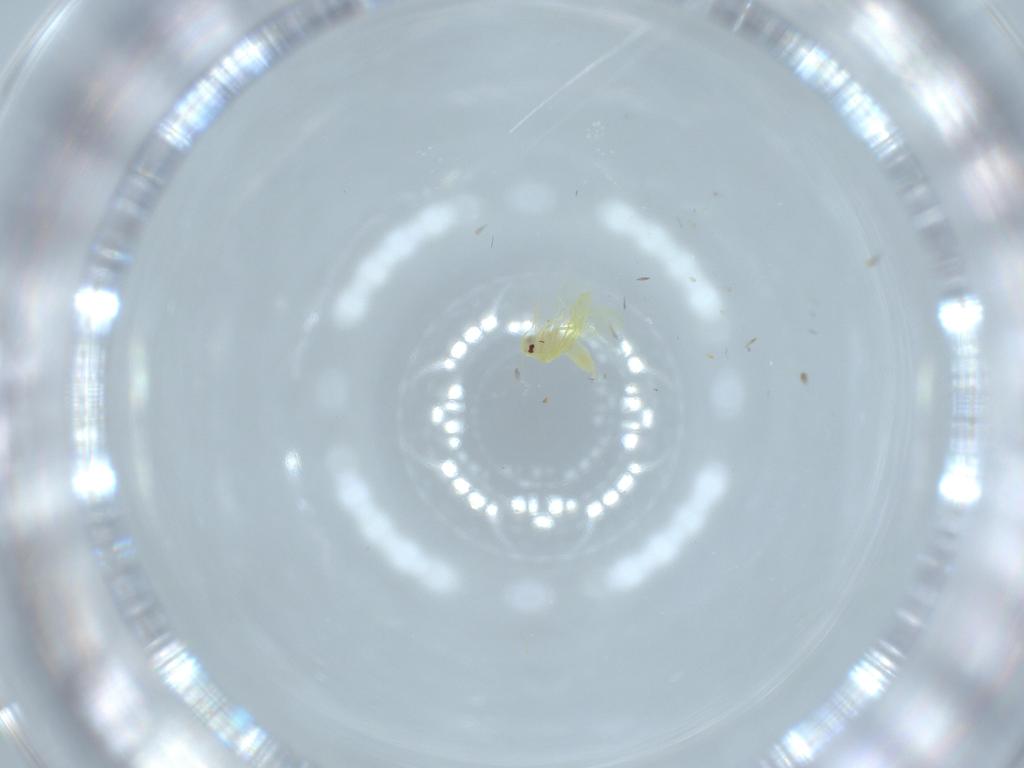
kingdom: Animalia
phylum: Arthropoda
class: Insecta
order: Hemiptera
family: Aleyrodidae
